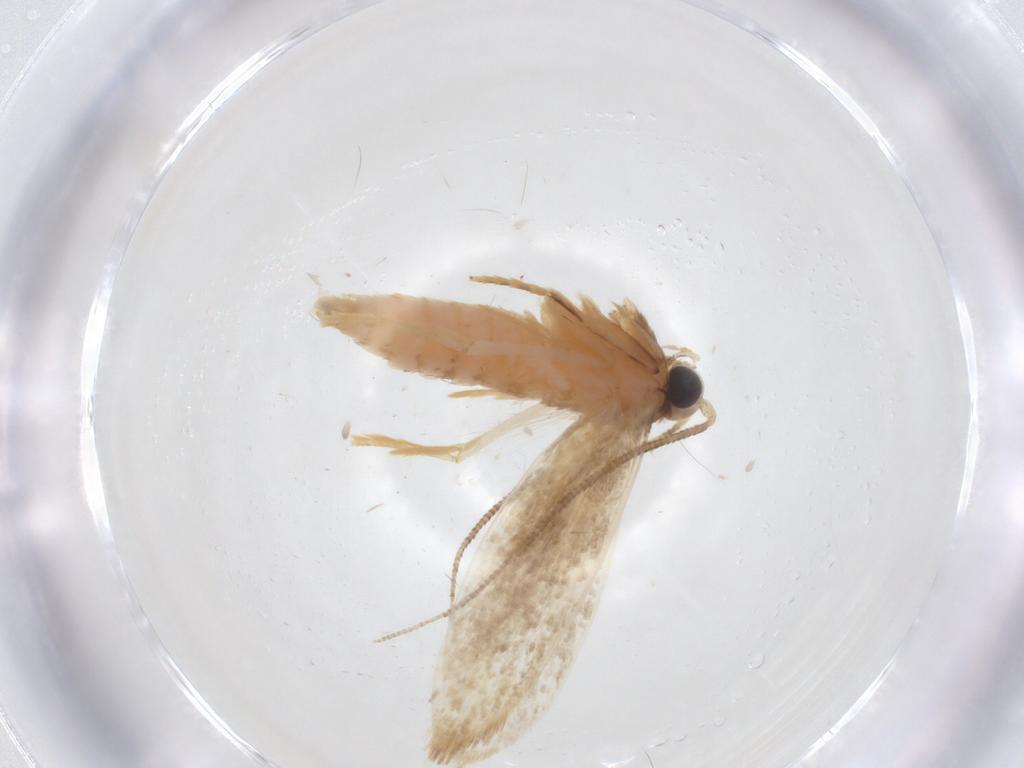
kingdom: Animalia
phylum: Arthropoda
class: Insecta
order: Lepidoptera
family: Tineidae
